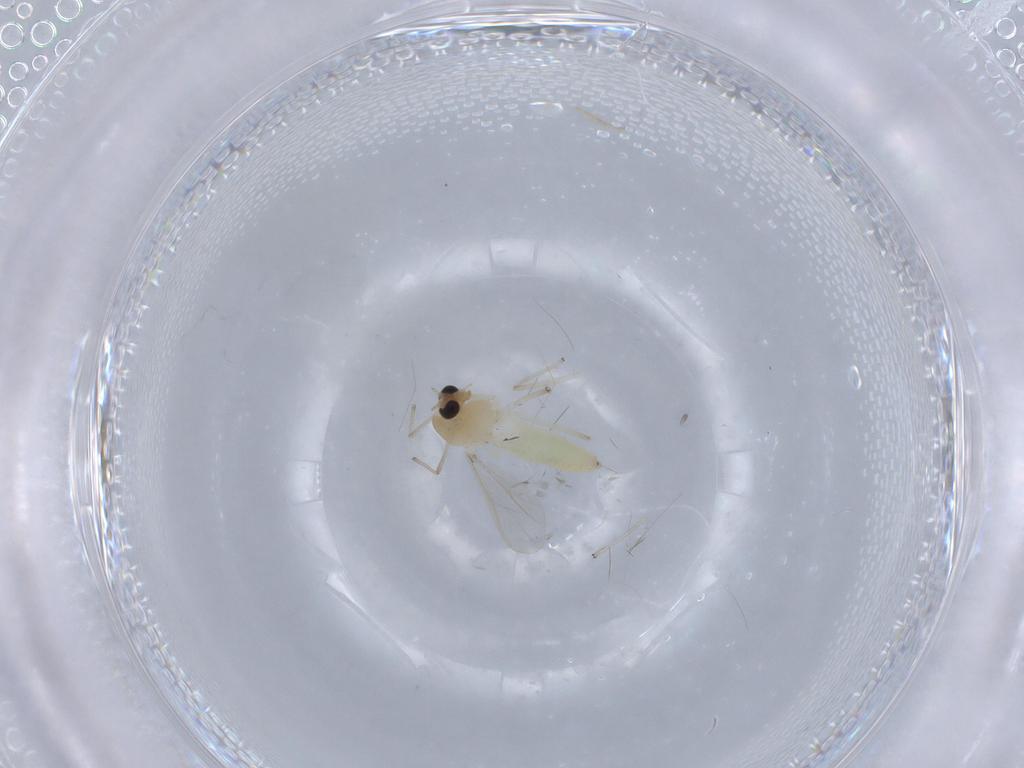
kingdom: Animalia
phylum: Arthropoda
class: Insecta
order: Diptera
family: Chironomidae
